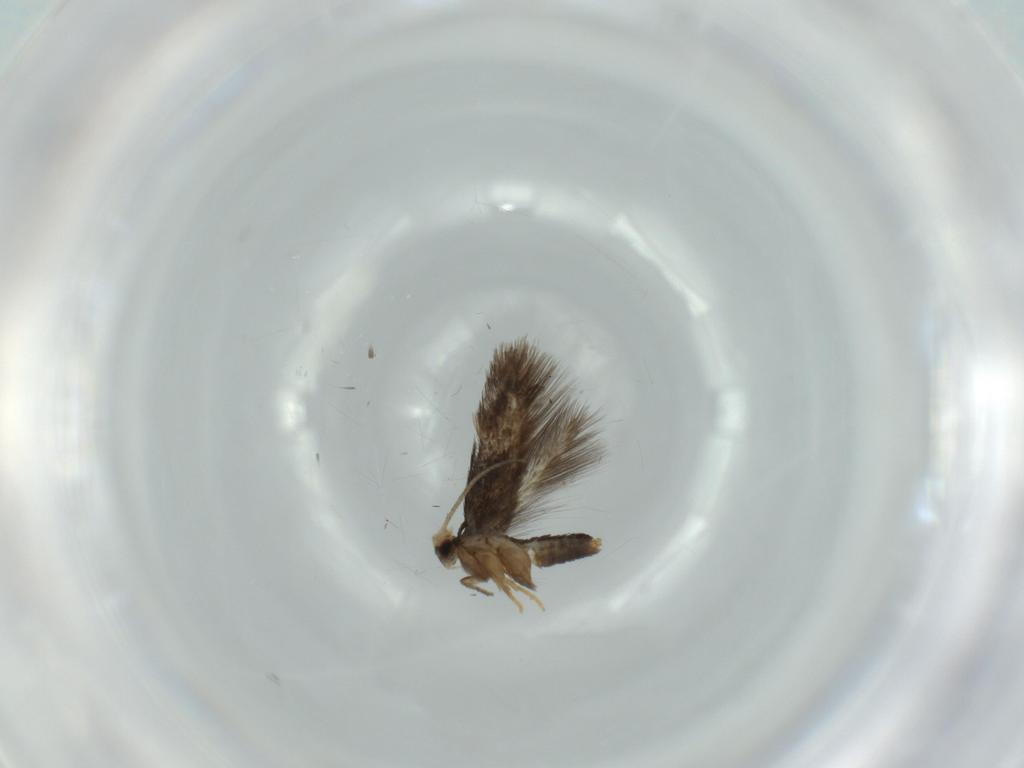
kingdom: Animalia
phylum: Arthropoda
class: Insecta
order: Lepidoptera
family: Nepticulidae
